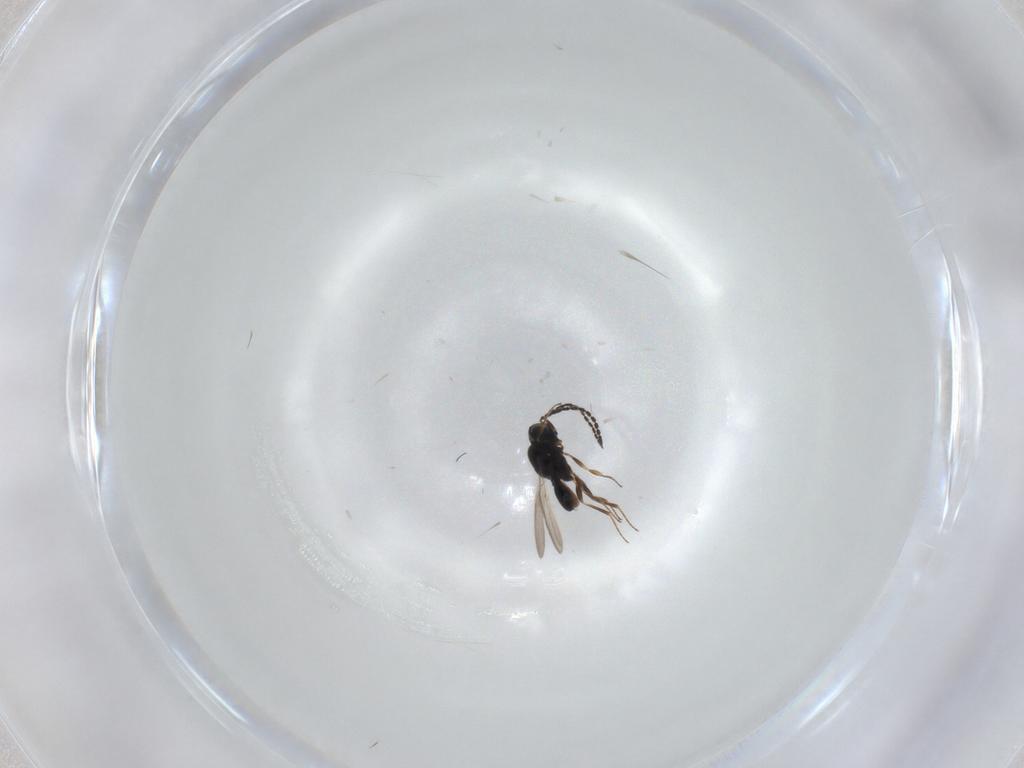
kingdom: Animalia
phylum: Arthropoda
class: Insecta
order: Hymenoptera
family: Scelionidae
